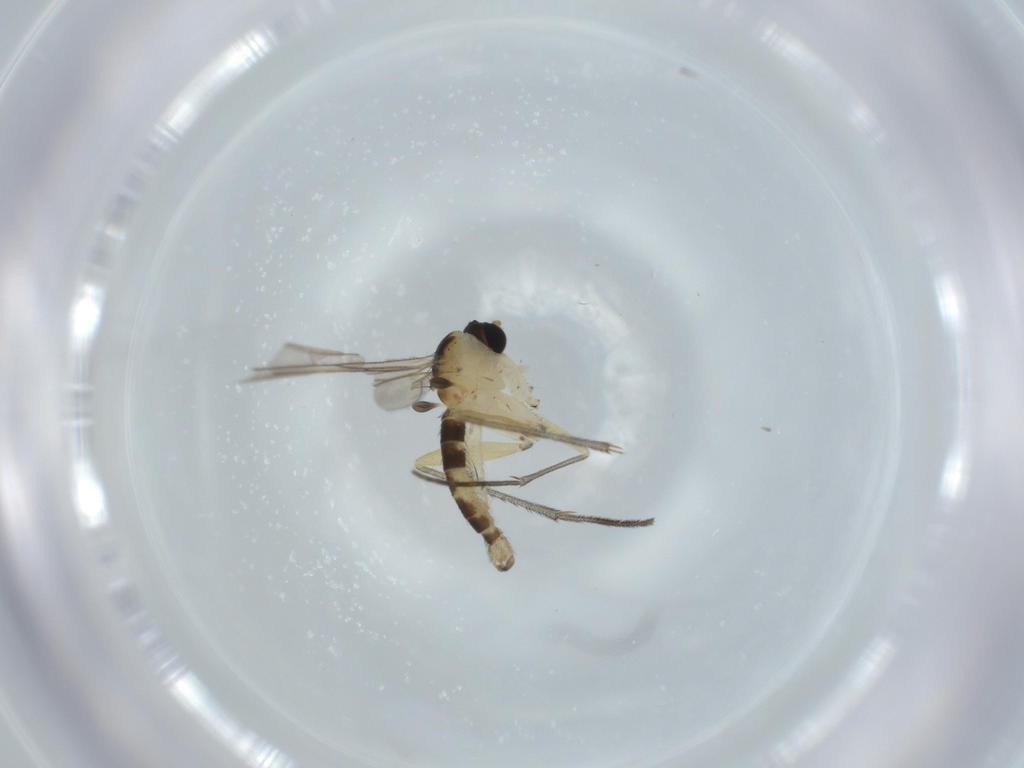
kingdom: Animalia
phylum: Arthropoda
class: Insecta
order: Diptera
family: Sciaridae
